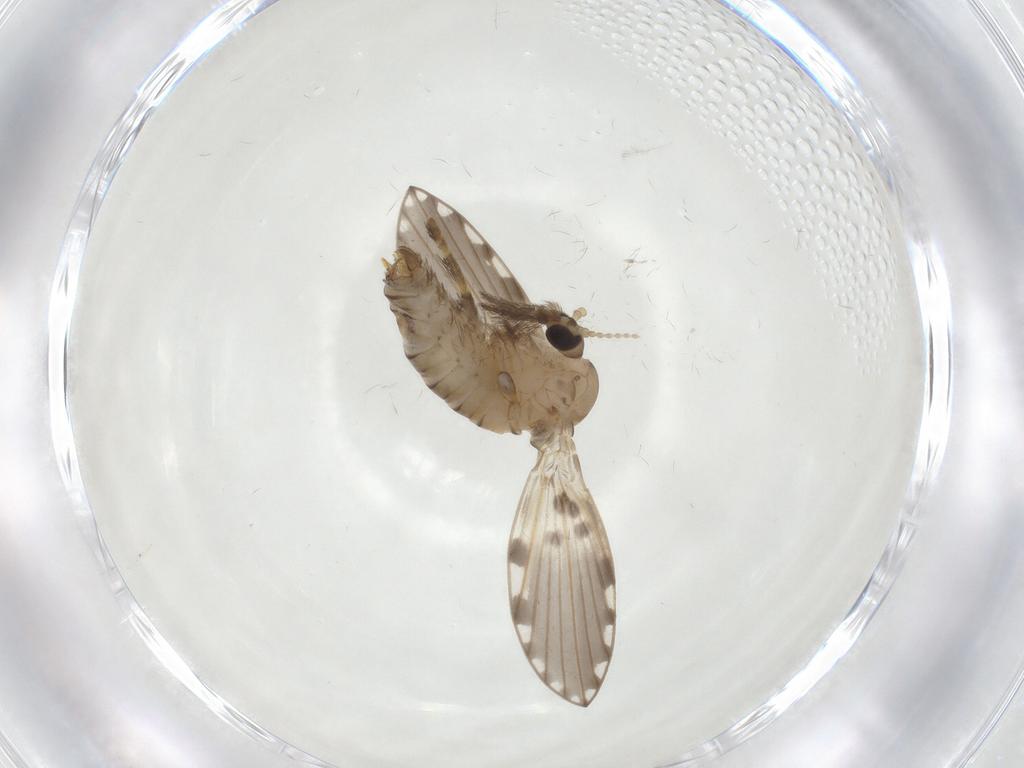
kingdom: Animalia
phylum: Arthropoda
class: Insecta
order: Diptera
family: Psychodidae
